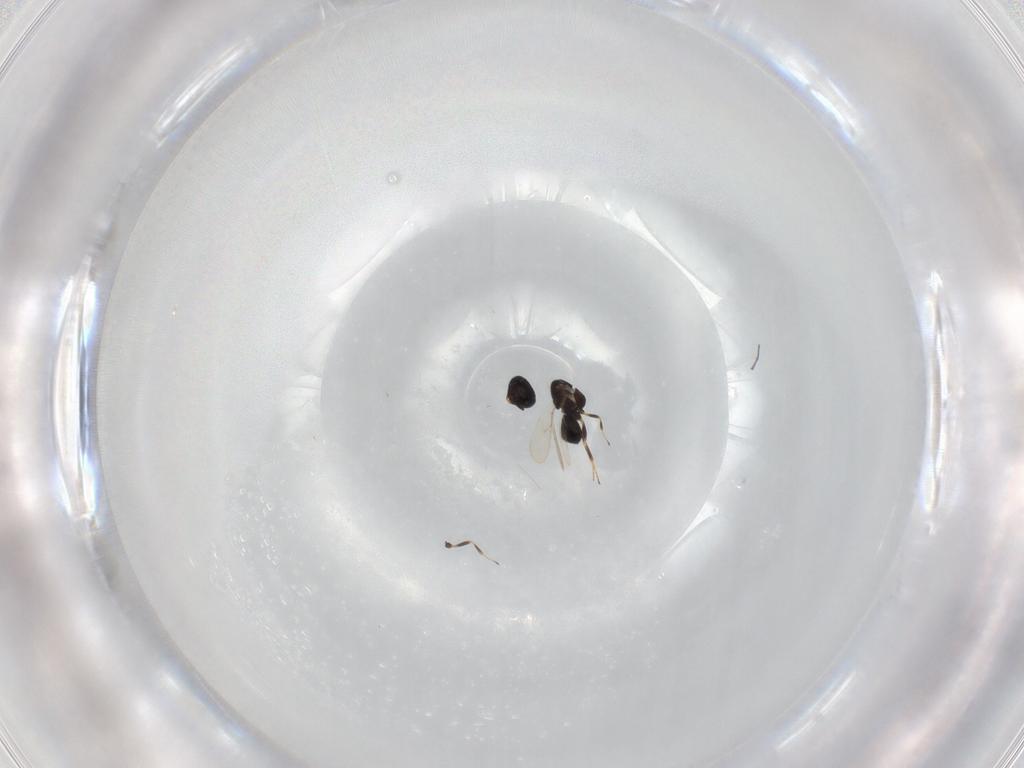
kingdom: Animalia
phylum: Arthropoda
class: Insecta
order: Hymenoptera
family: Scelionidae
